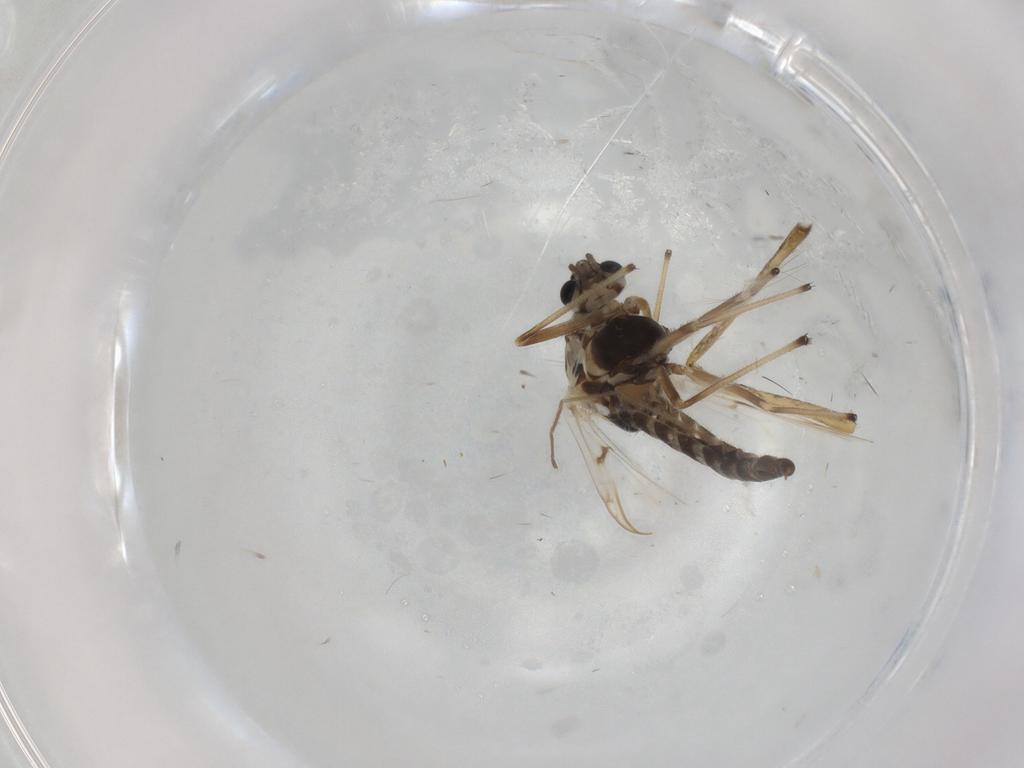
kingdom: Animalia
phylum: Arthropoda
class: Insecta
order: Diptera
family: Chironomidae
